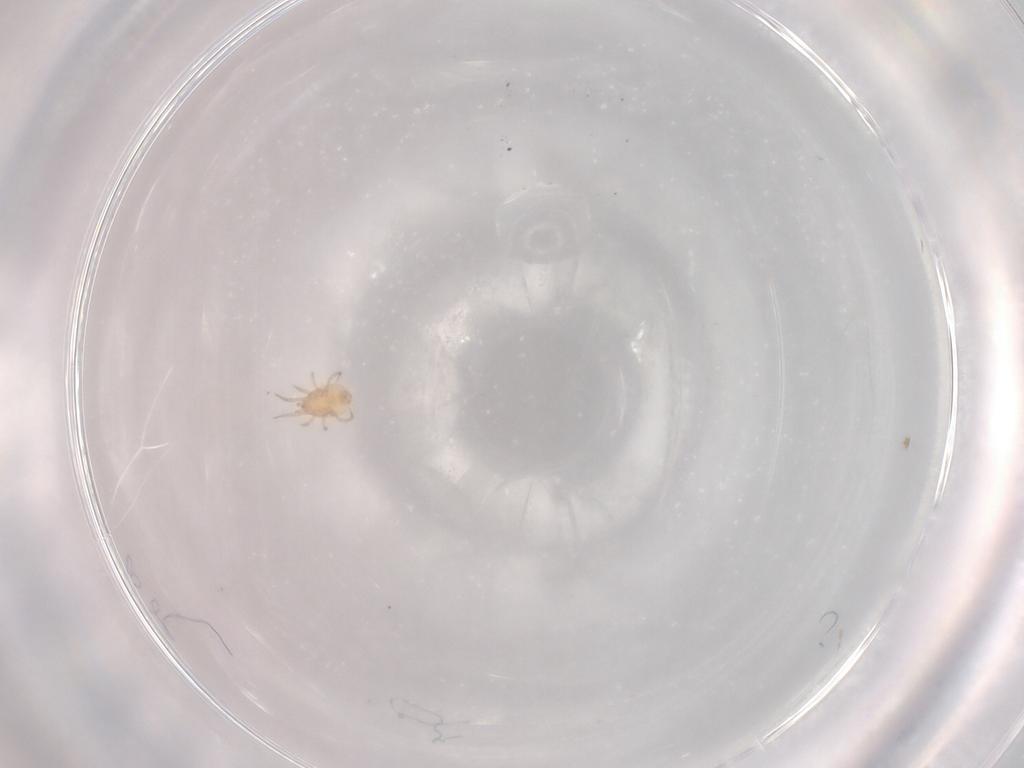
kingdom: Animalia
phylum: Arthropoda
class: Arachnida
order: Mesostigmata
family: Phytoseiidae
